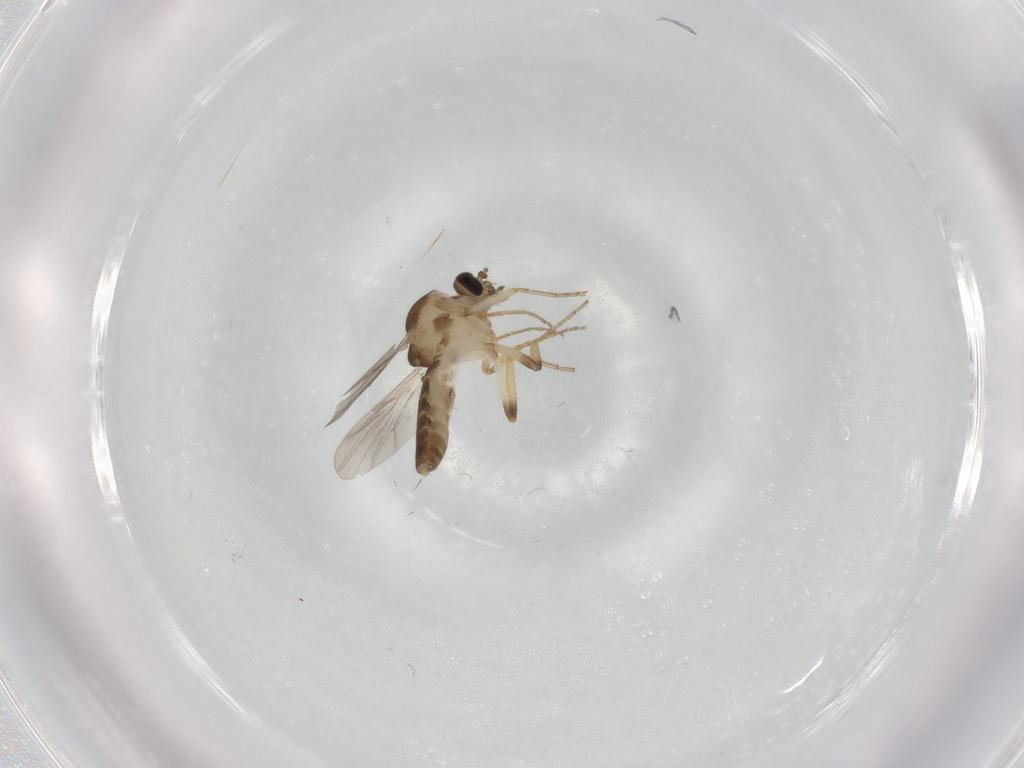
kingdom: Animalia
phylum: Arthropoda
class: Insecta
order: Diptera
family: Ceratopogonidae
